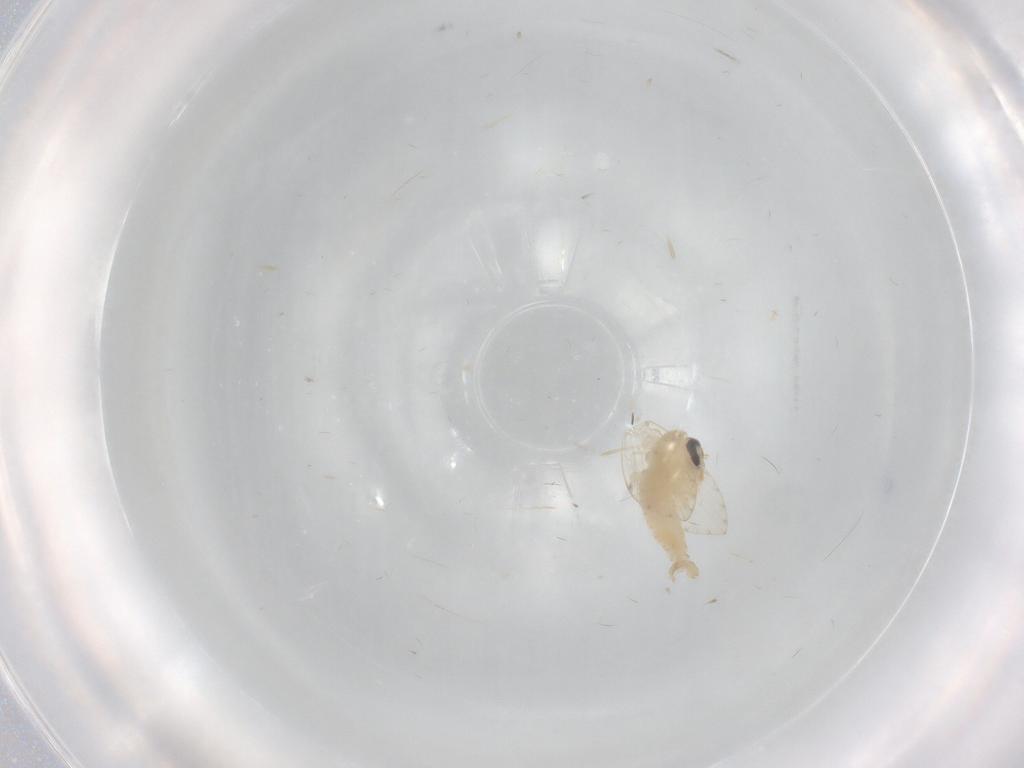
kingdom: Animalia
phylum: Arthropoda
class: Insecta
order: Diptera
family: Psychodidae
